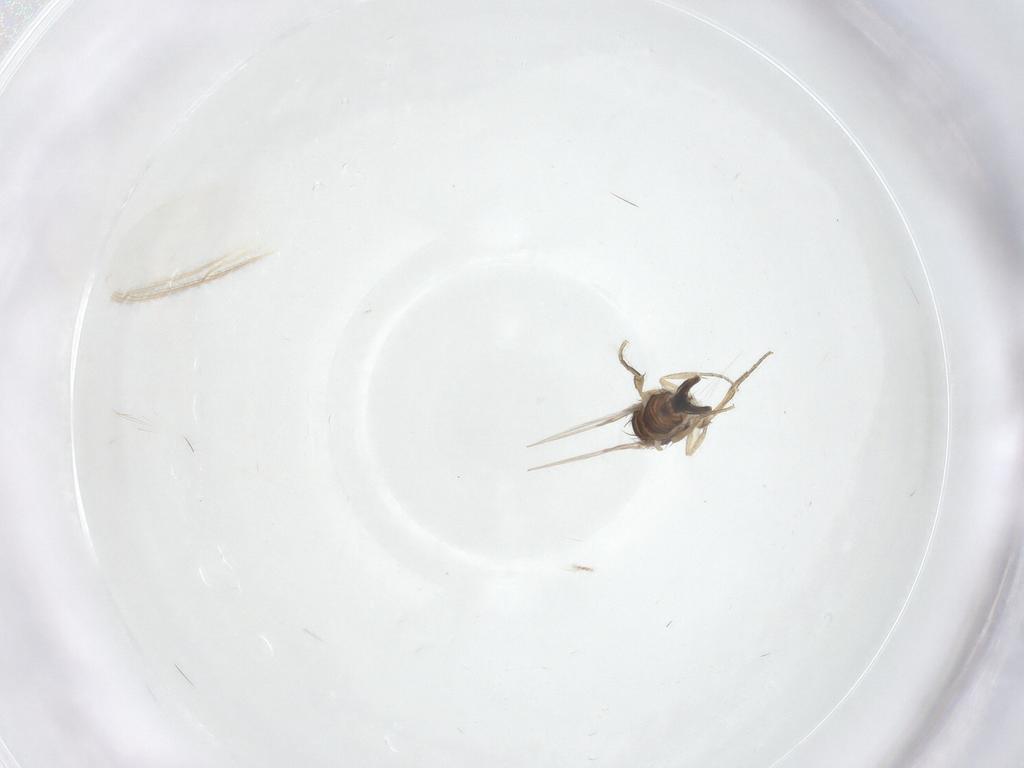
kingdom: Animalia
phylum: Arthropoda
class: Insecta
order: Diptera
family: Phoridae
